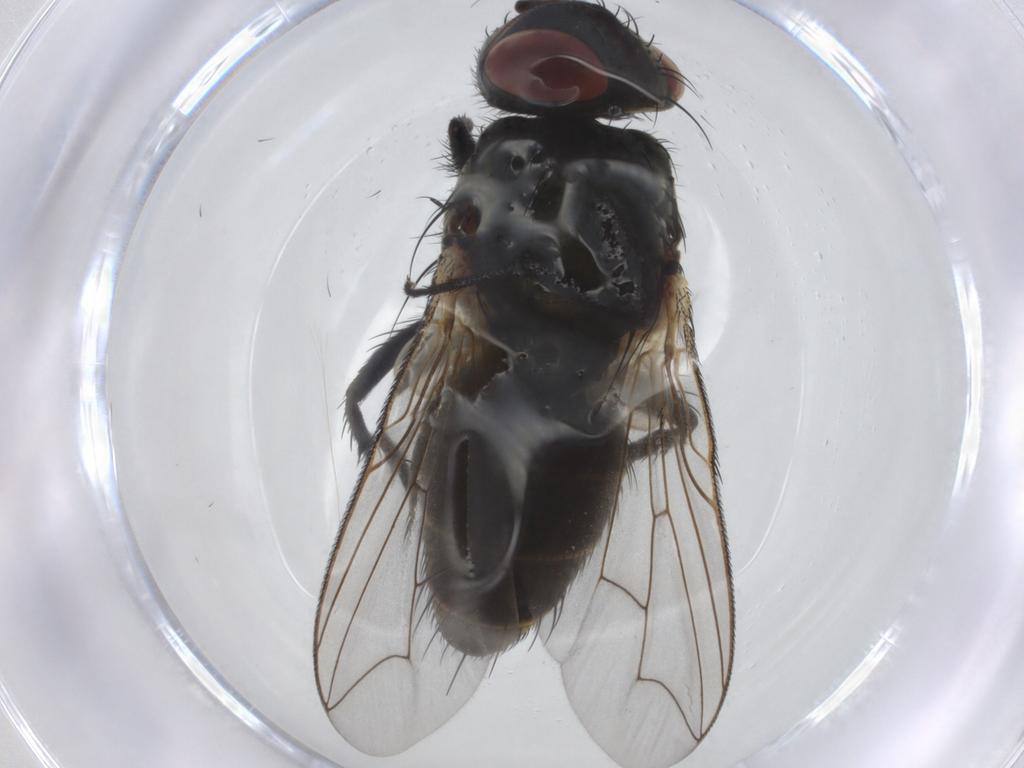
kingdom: Animalia
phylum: Arthropoda
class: Insecta
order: Diptera
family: Sarcophagidae
